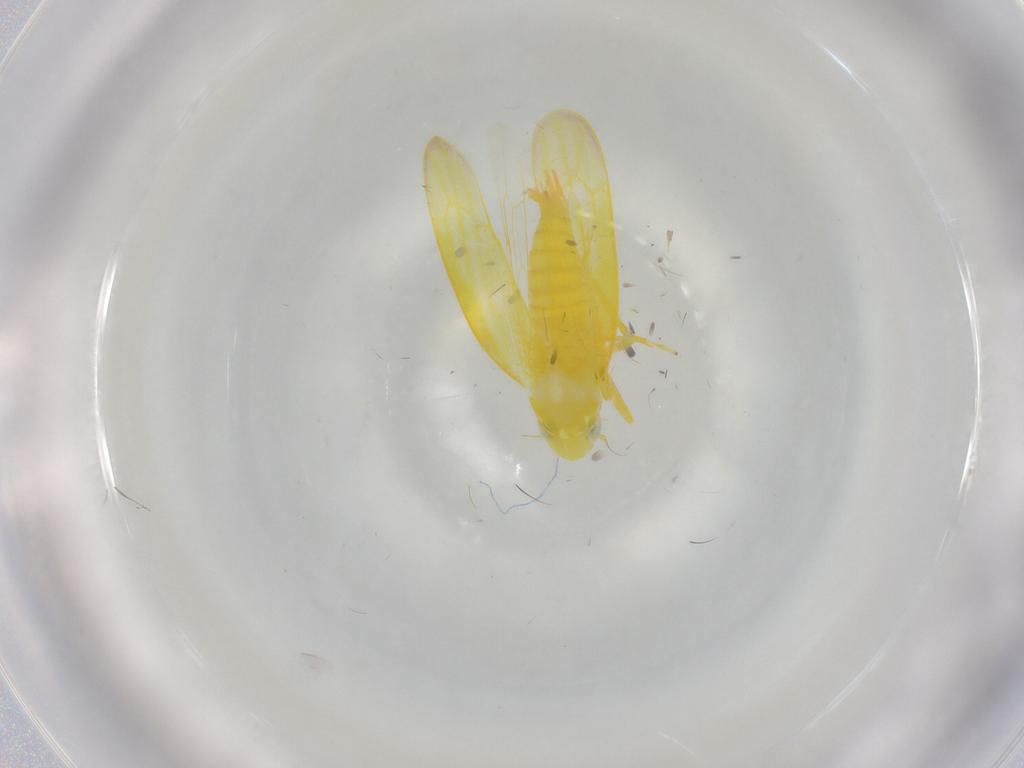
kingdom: Animalia
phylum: Arthropoda
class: Insecta
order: Hemiptera
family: Cicadellidae
